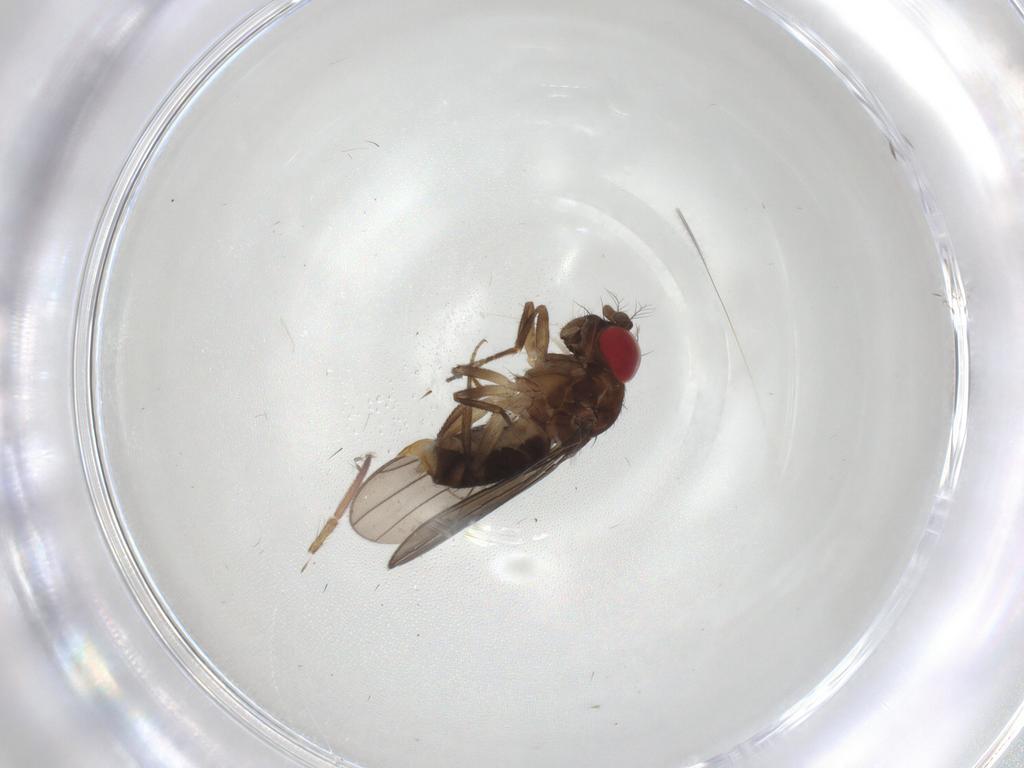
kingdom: Animalia
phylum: Arthropoda
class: Insecta
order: Diptera
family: Drosophilidae
